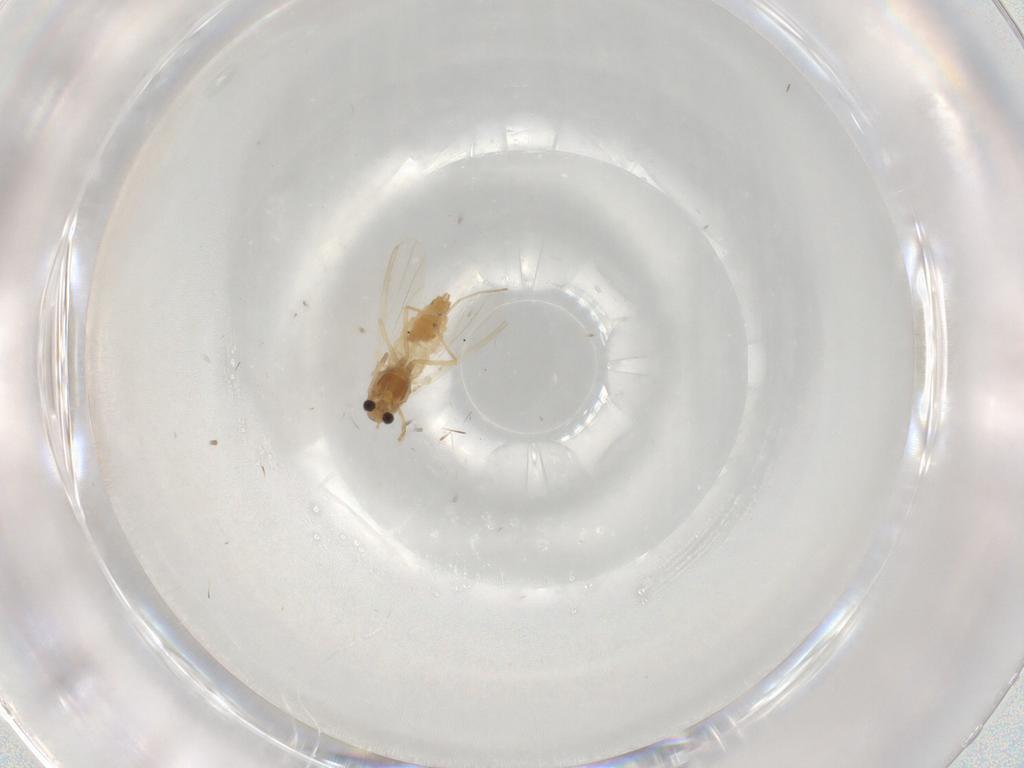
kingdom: Animalia
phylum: Arthropoda
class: Insecta
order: Diptera
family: Chironomidae
